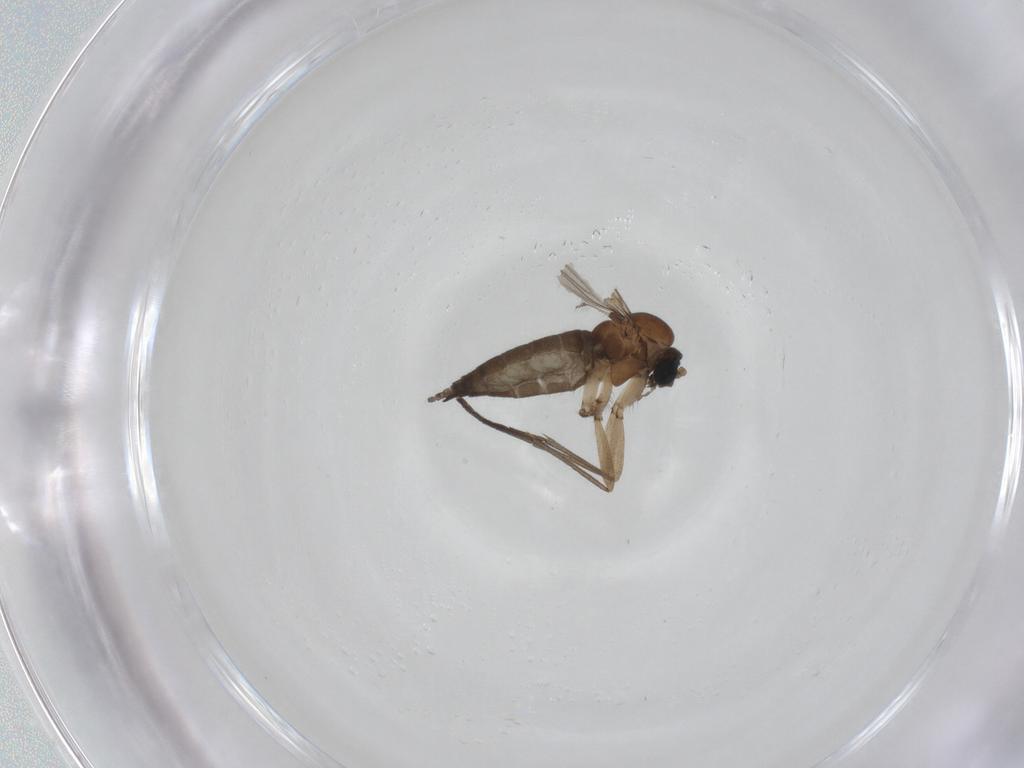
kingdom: Animalia
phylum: Arthropoda
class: Insecta
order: Diptera
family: Sciaridae
